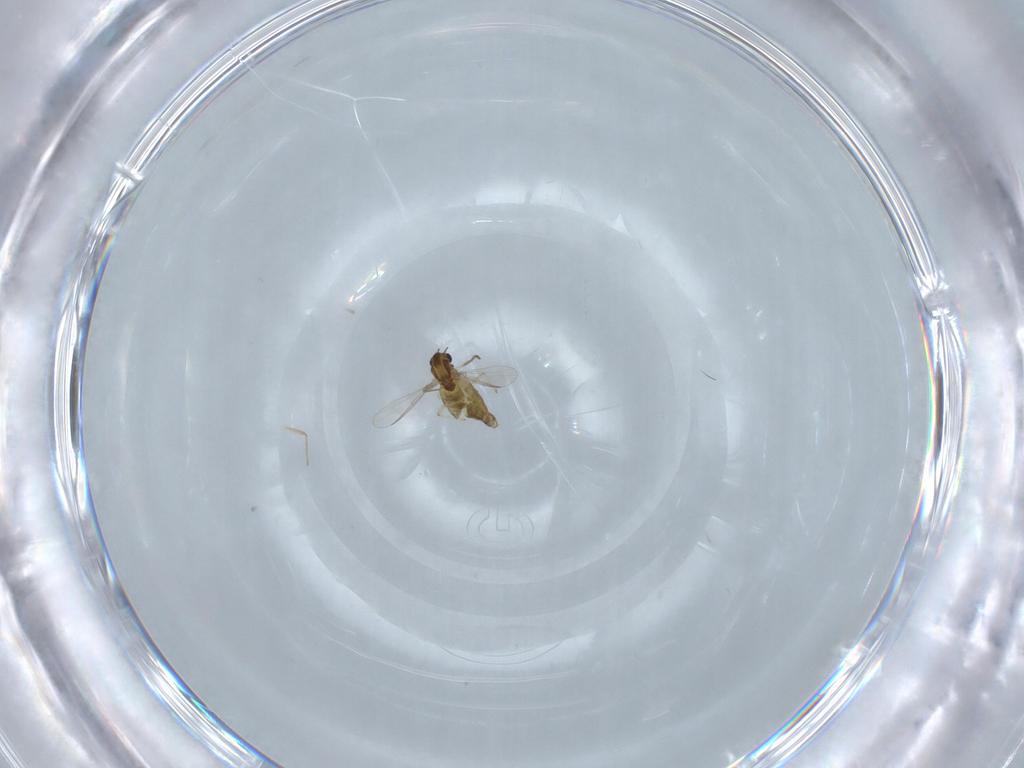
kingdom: Animalia
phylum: Arthropoda
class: Insecta
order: Diptera
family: Chironomidae
